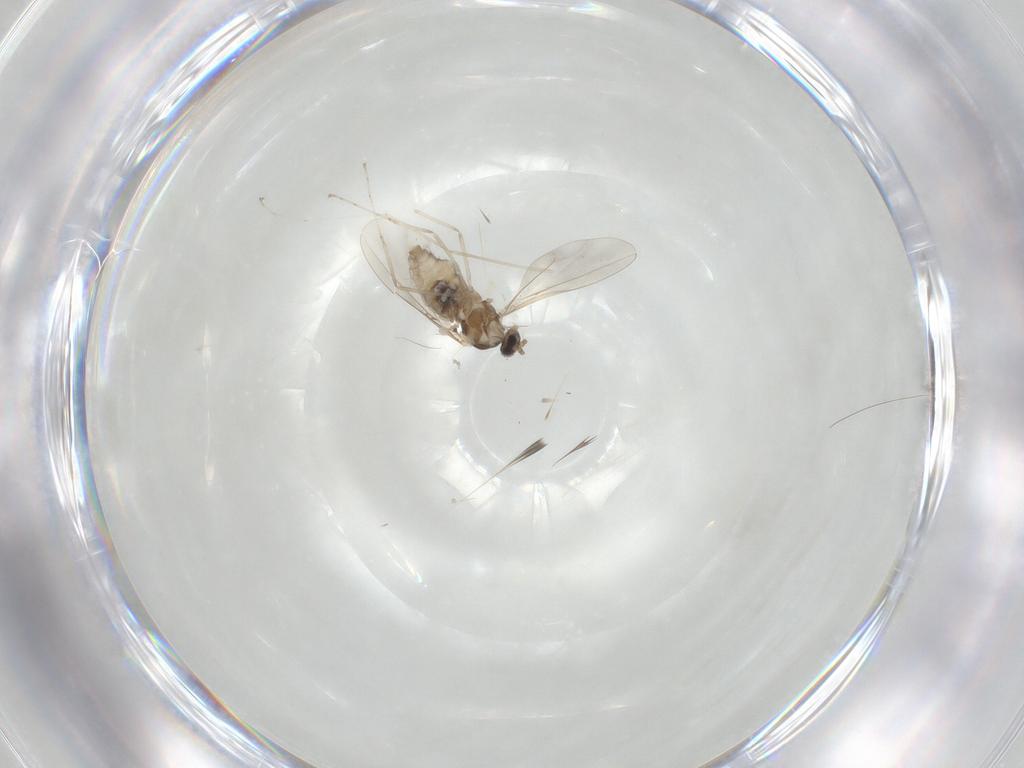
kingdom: Animalia
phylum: Arthropoda
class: Insecta
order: Diptera
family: Cecidomyiidae
